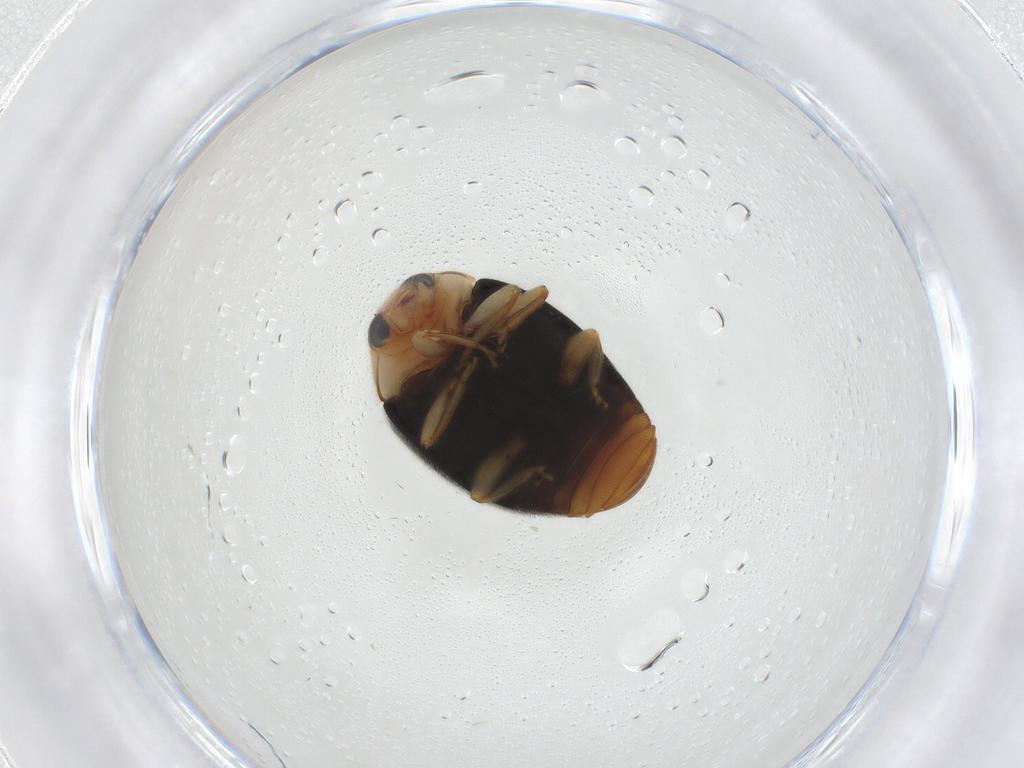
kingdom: Animalia
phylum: Arthropoda
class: Insecta
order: Coleoptera
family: Coccinellidae
